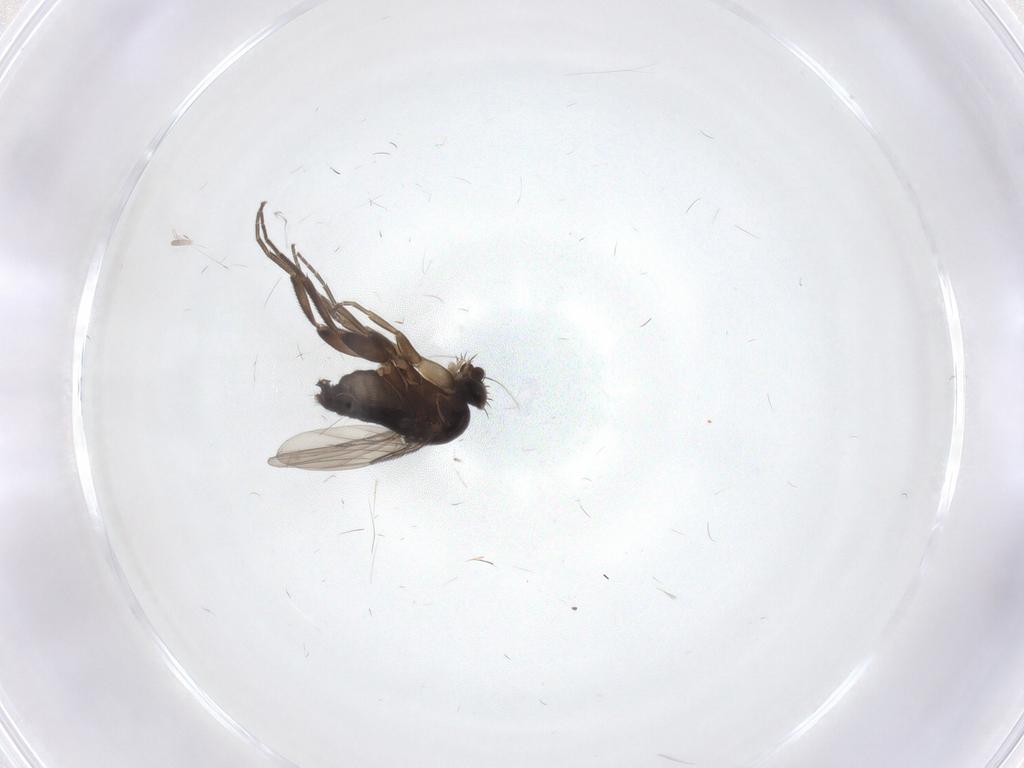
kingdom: Animalia
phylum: Arthropoda
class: Insecta
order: Diptera
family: Phoridae
